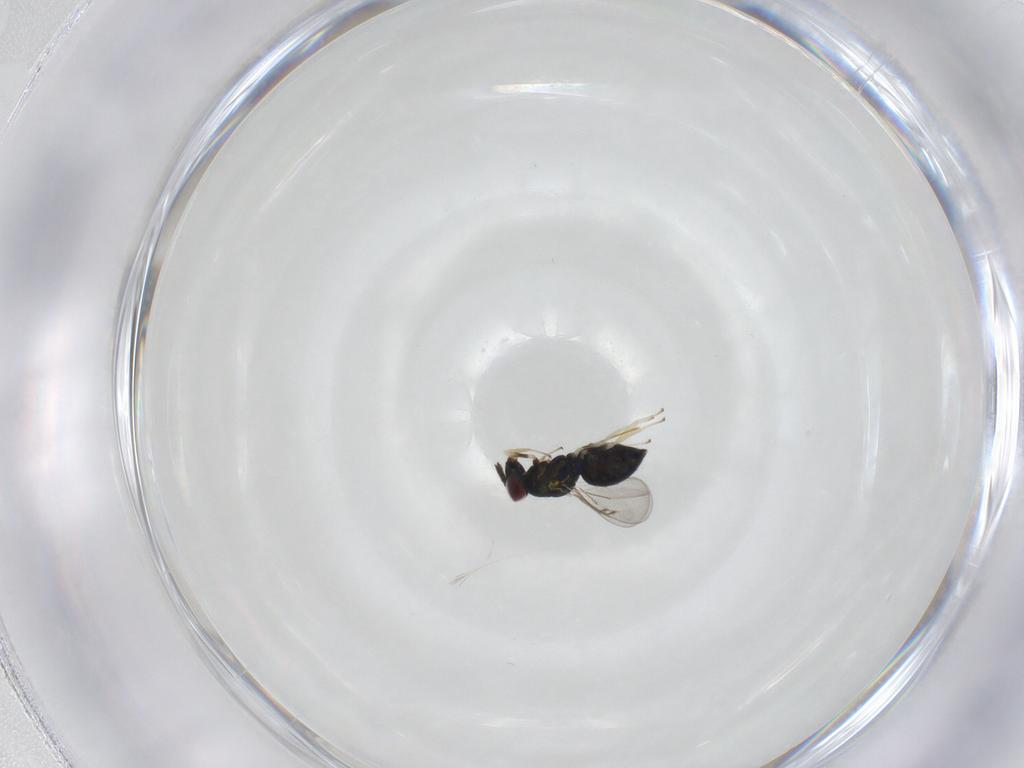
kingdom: Animalia
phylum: Arthropoda
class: Insecta
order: Hymenoptera
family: Eulophidae
